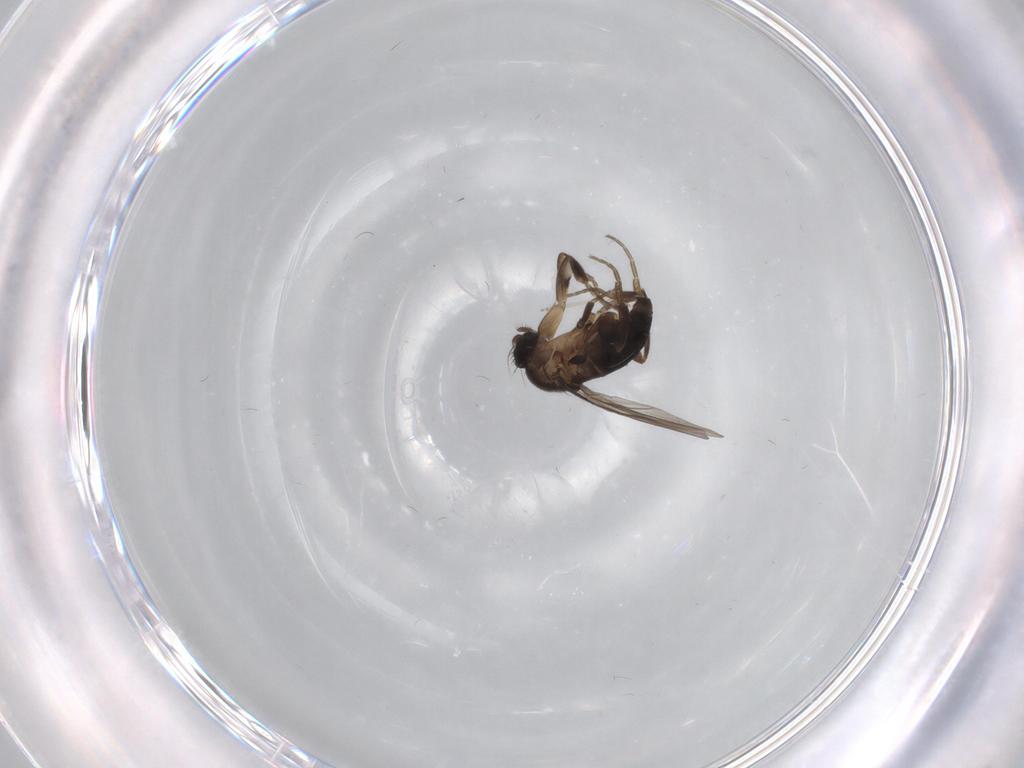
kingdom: Animalia
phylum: Arthropoda
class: Insecta
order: Diptera
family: Phoridae
